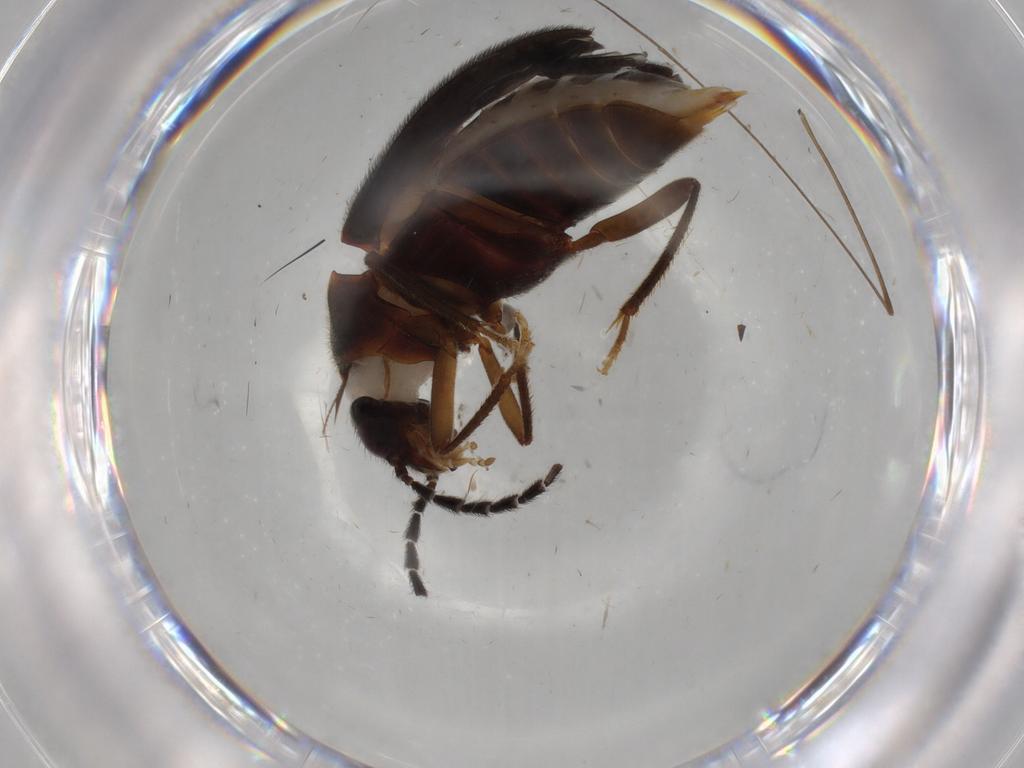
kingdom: Animalia
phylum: Arthropoda
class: Insecta
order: Coleoptera
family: Ptilodactylidae
